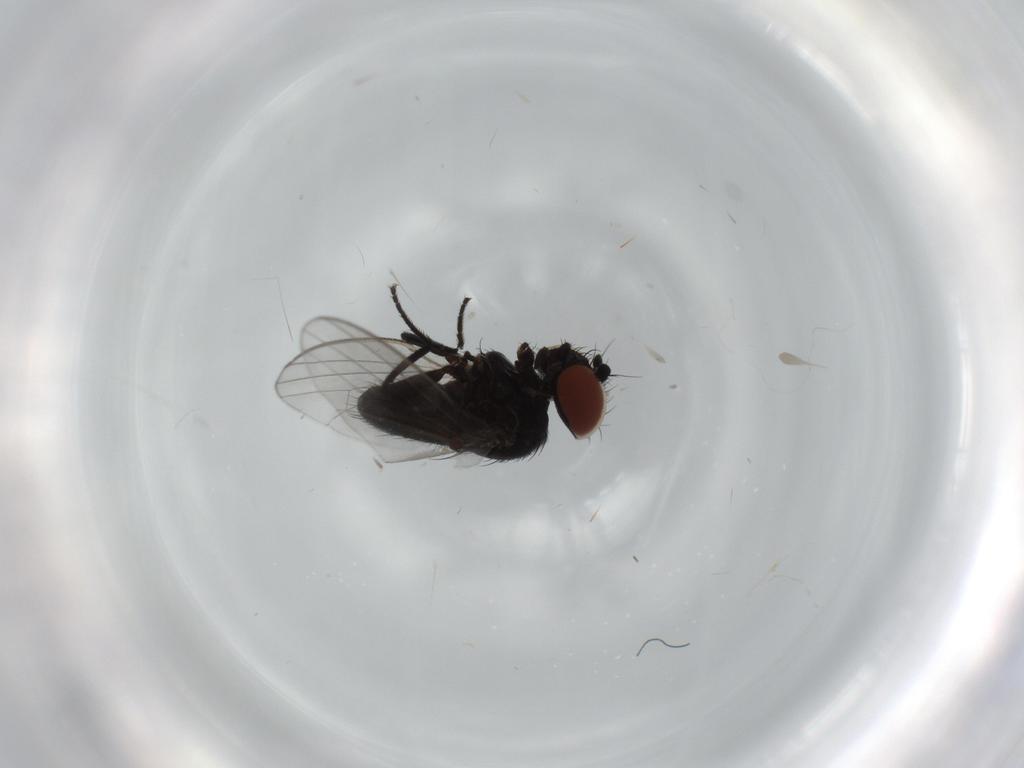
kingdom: Animalia
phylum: Arthropoda
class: Insecta
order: Diptera
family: Milichiidae
